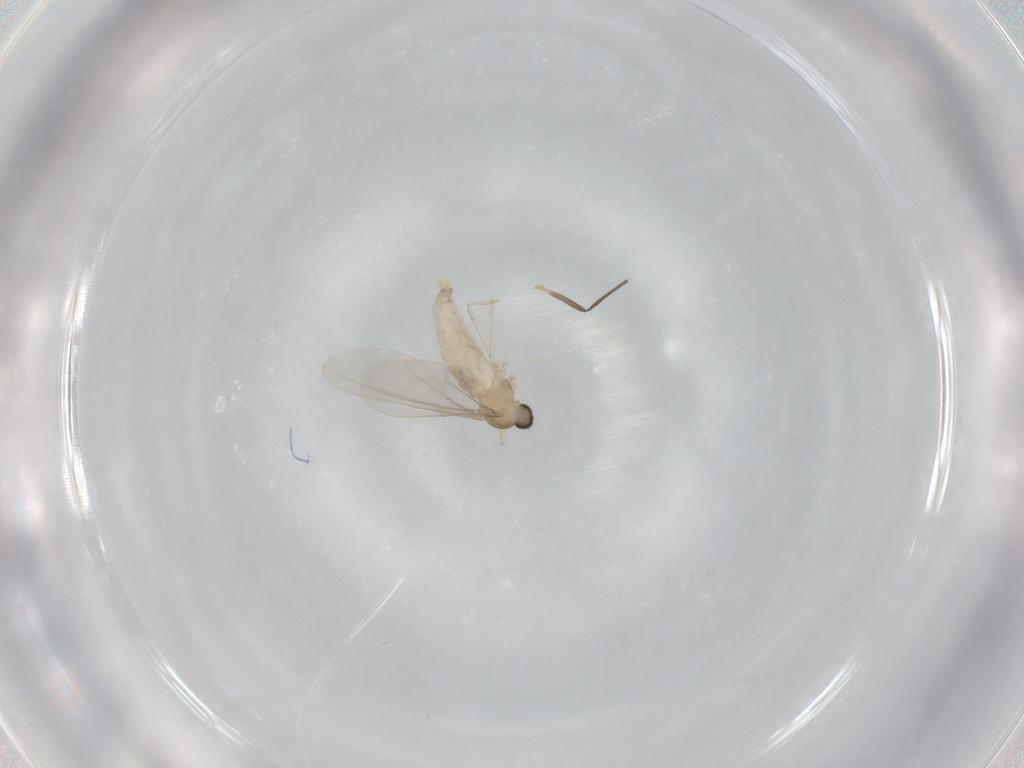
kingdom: Animalia
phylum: Arthropoda
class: Insecta
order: Diptera
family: Cecidomyiidae
